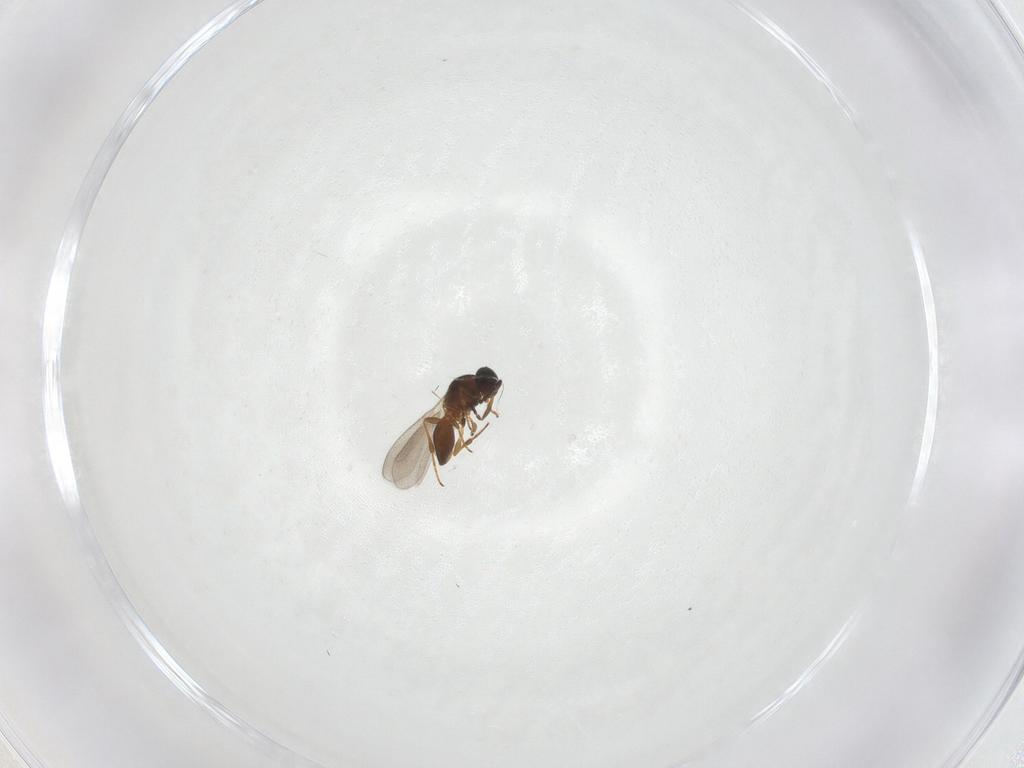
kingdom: Animalia
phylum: Arthropoda
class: Insecta
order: Hymenoptera
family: Platygastridae
